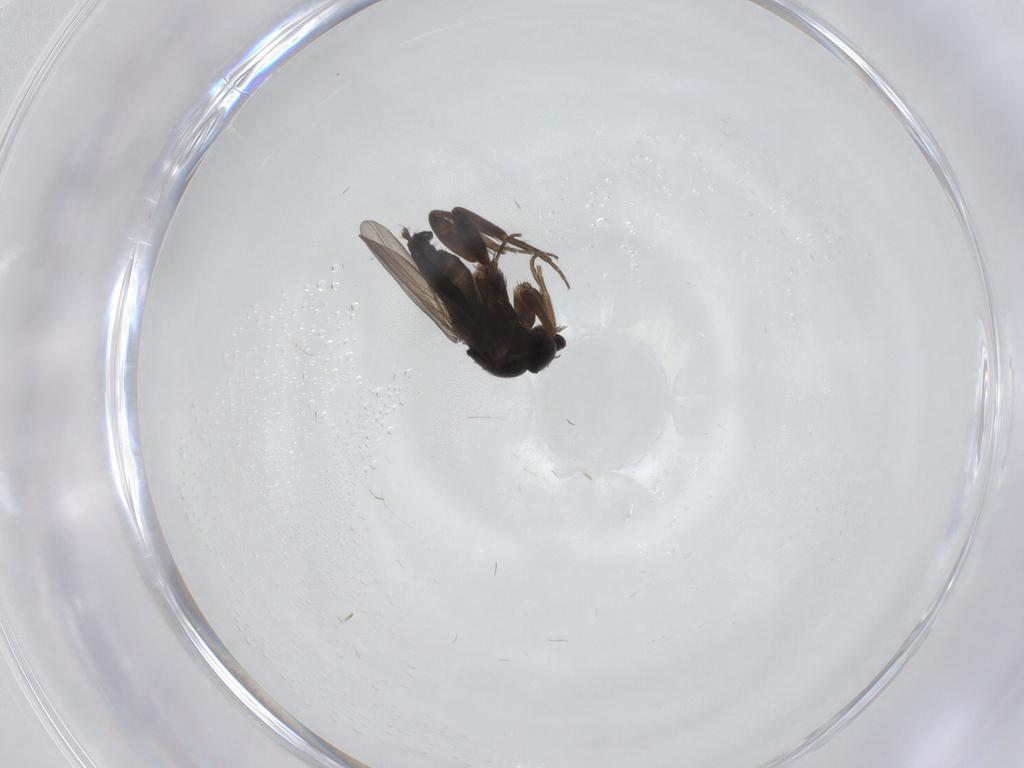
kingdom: Animalia
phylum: Arthropoda
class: Insecta
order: Diptera
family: Phoridae
